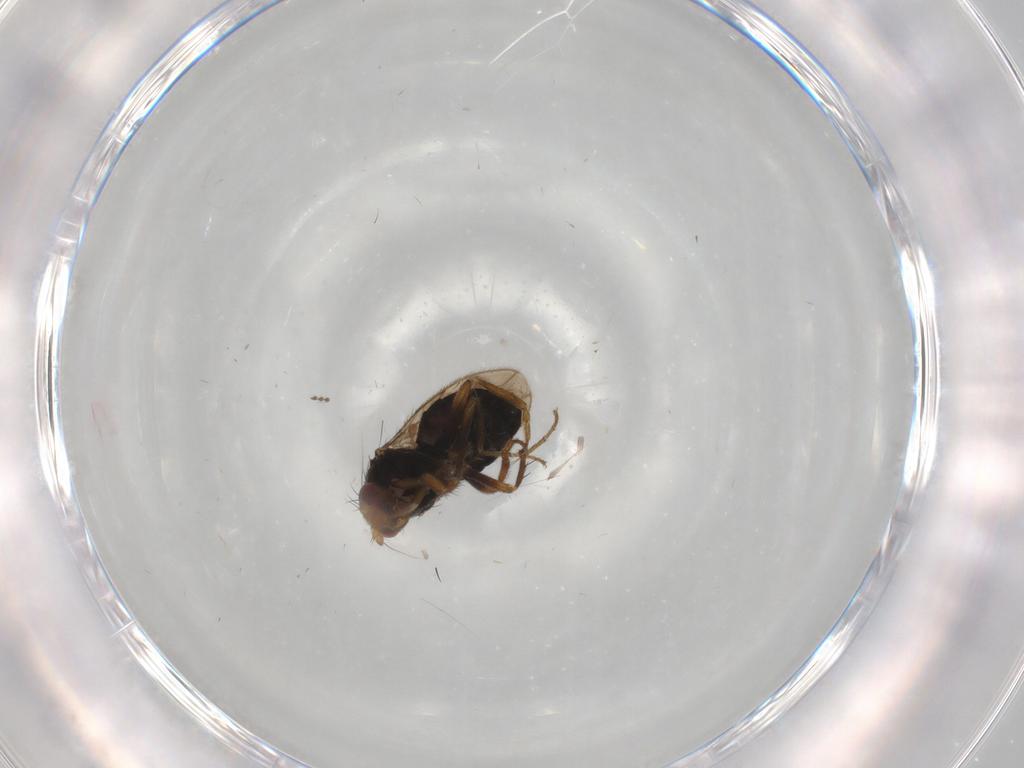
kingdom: Animalia
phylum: Arthropoda
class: Insecta
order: Diptera
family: Sphaeroceridae
